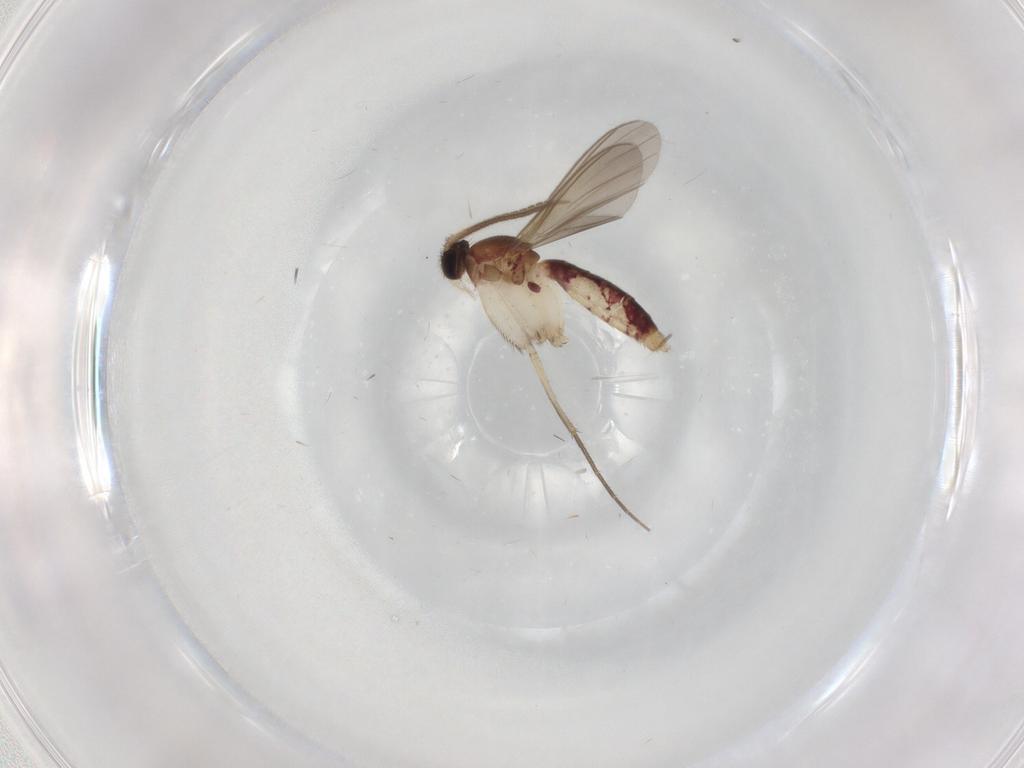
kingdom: Animalia
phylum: Arthropoda
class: Insecta
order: Diptera
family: Mycetophilidae
